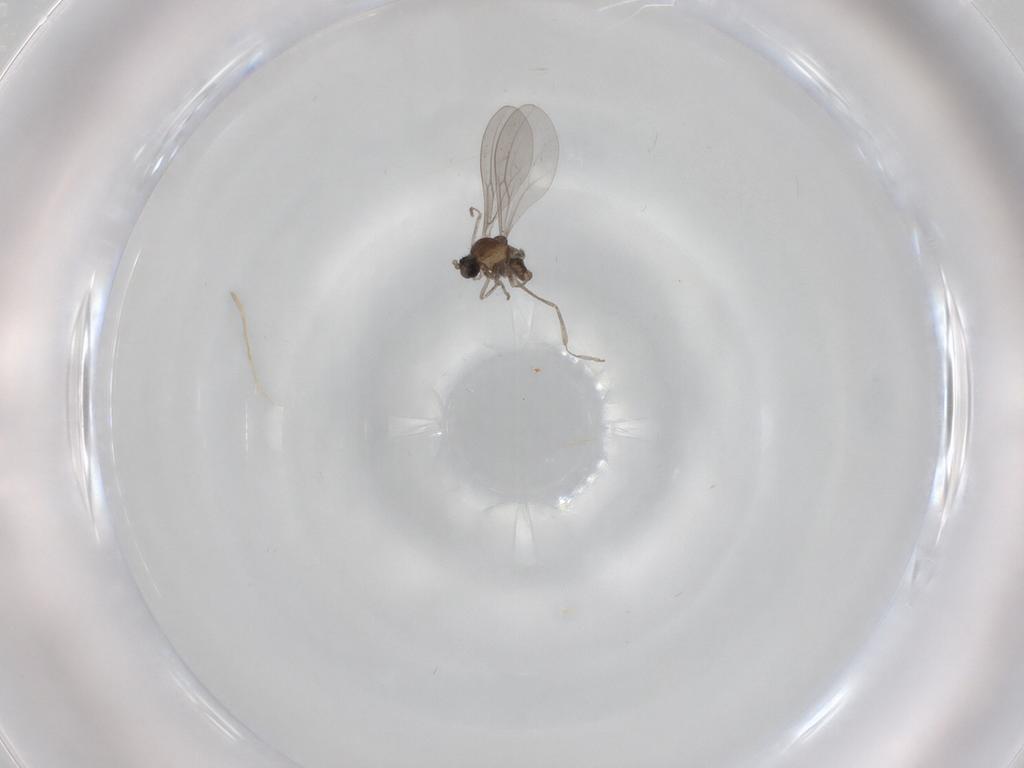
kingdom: Animalia
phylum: Arthropoda
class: Insecta
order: Diptera
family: Cecidomyiidae
